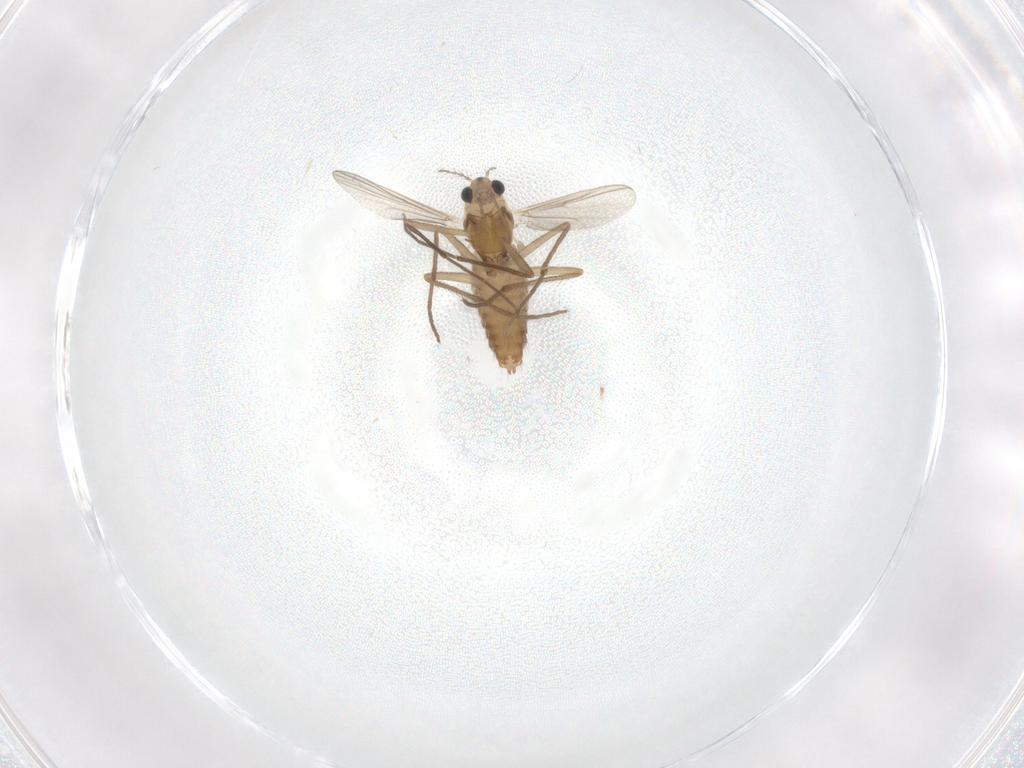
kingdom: Animalia
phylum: Arthropoda
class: Insecta
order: Diptera
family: Chironomidae
